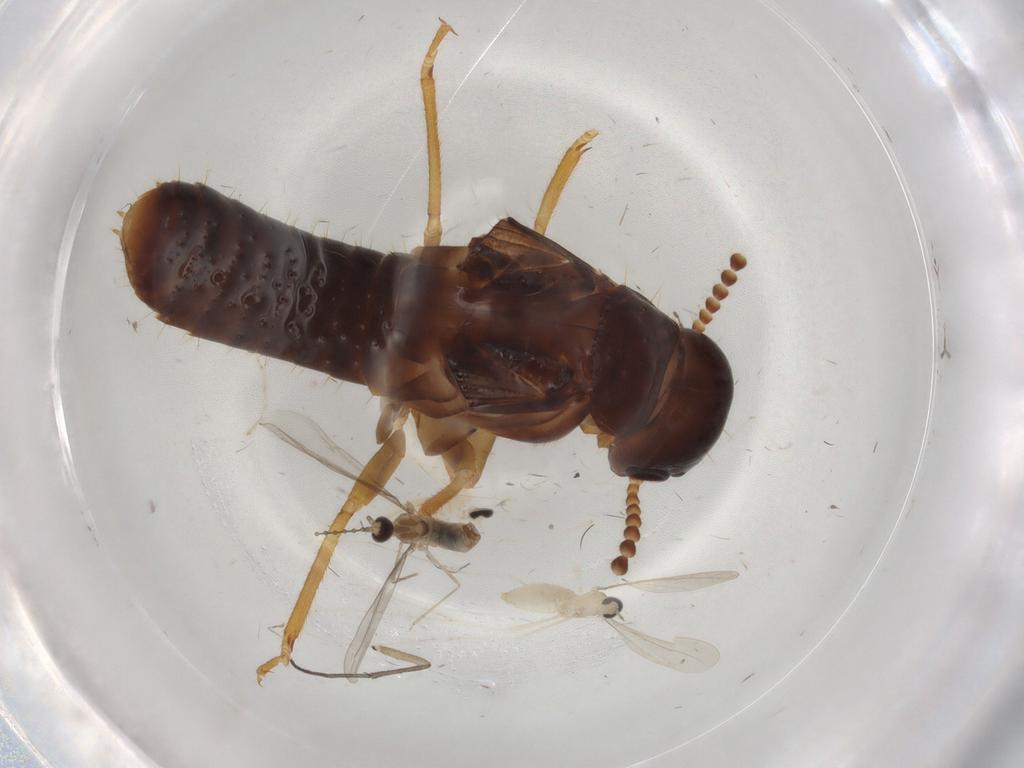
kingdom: Animalia
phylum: Arthropoda
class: Insecta
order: Diptera
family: Cecidomyiidae
